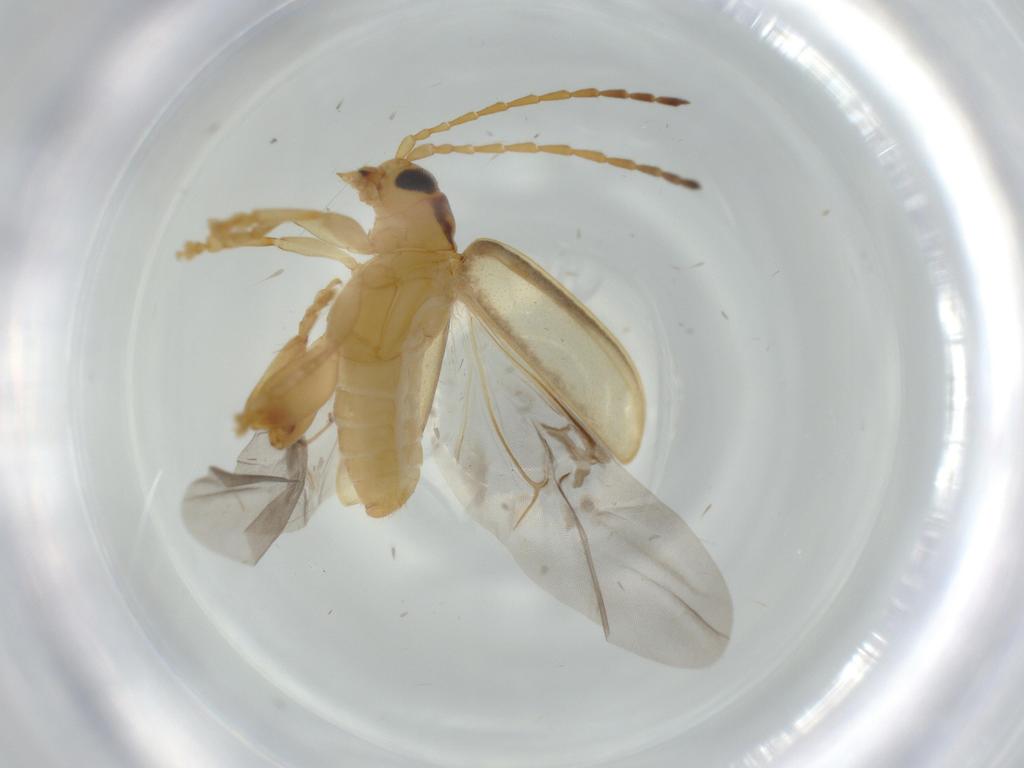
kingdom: Animalia
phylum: Arthropoda
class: Insecta
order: Coleoptera
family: Chrysomelidae
